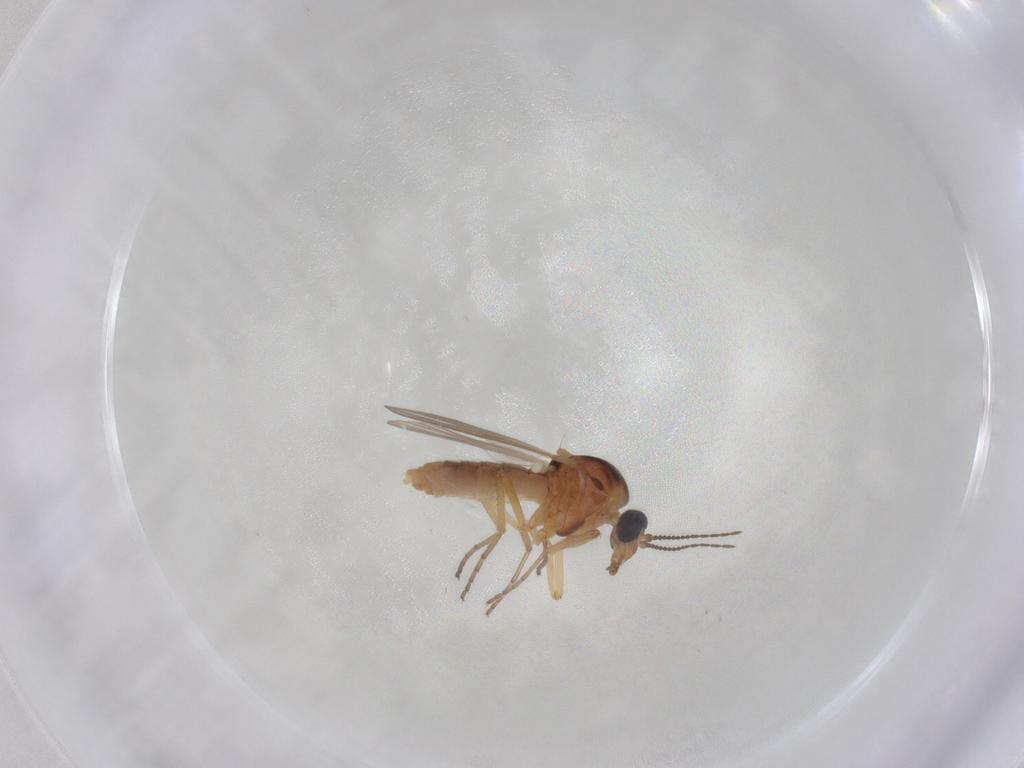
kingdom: Animalia
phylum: Arthropoda
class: Insecta
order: Diptera
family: Ceratopogonidae
